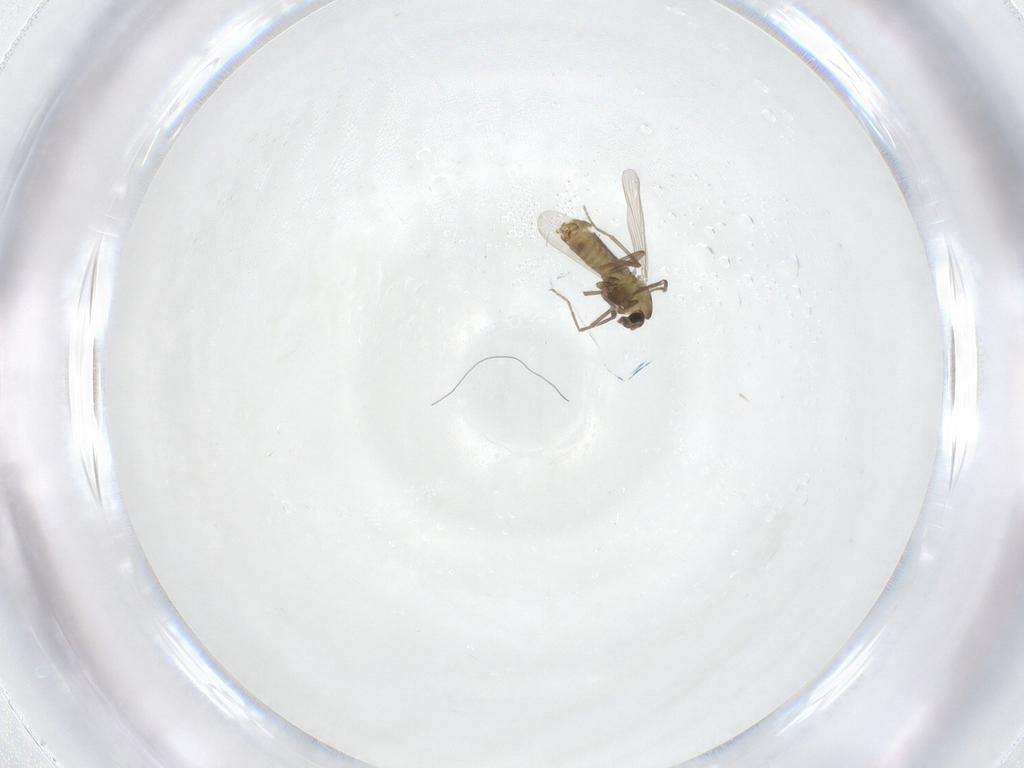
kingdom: Animalia
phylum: Arthropoda
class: Insecta
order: Diptera
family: Chironomidae
